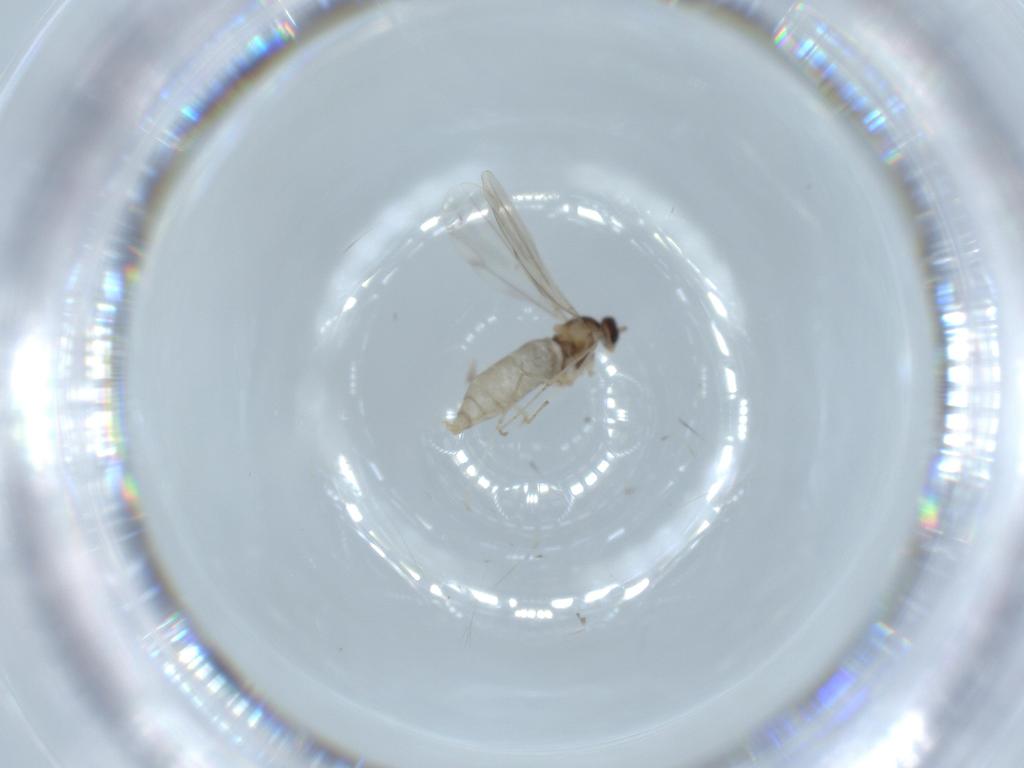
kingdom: Animalia
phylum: Arthropoda
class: Insecta
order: Diptera
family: Cecidomyiidae
